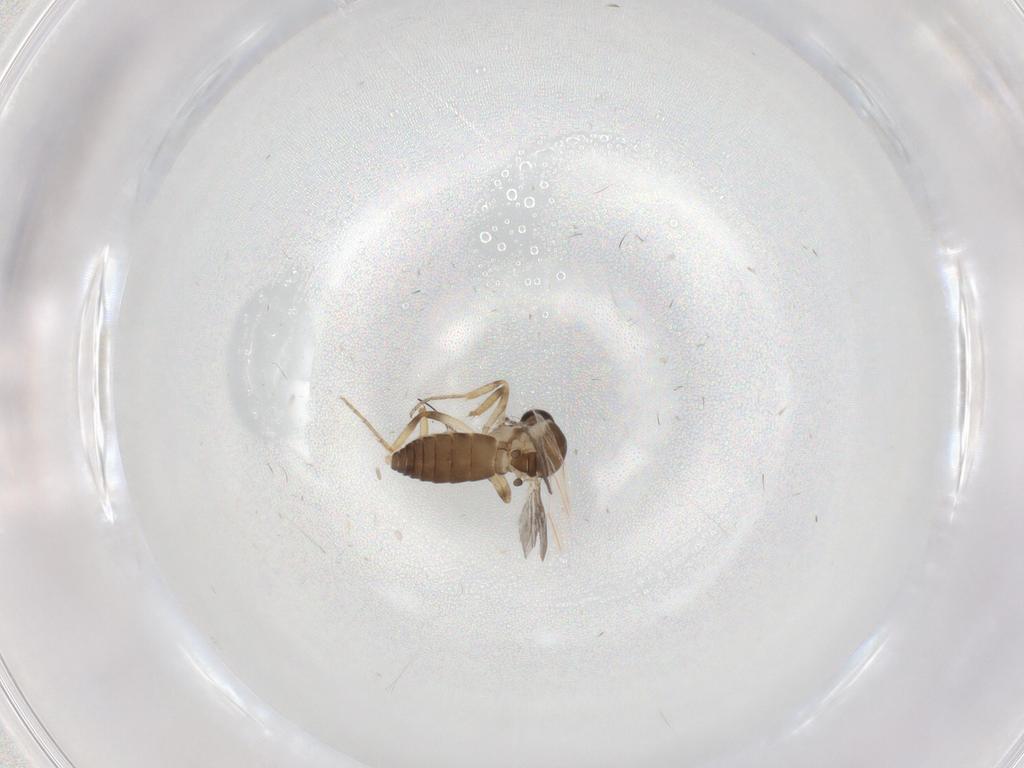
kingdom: Animalia
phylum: Arthropoda
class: Insecta
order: Diptera
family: Ceratopogonidae
